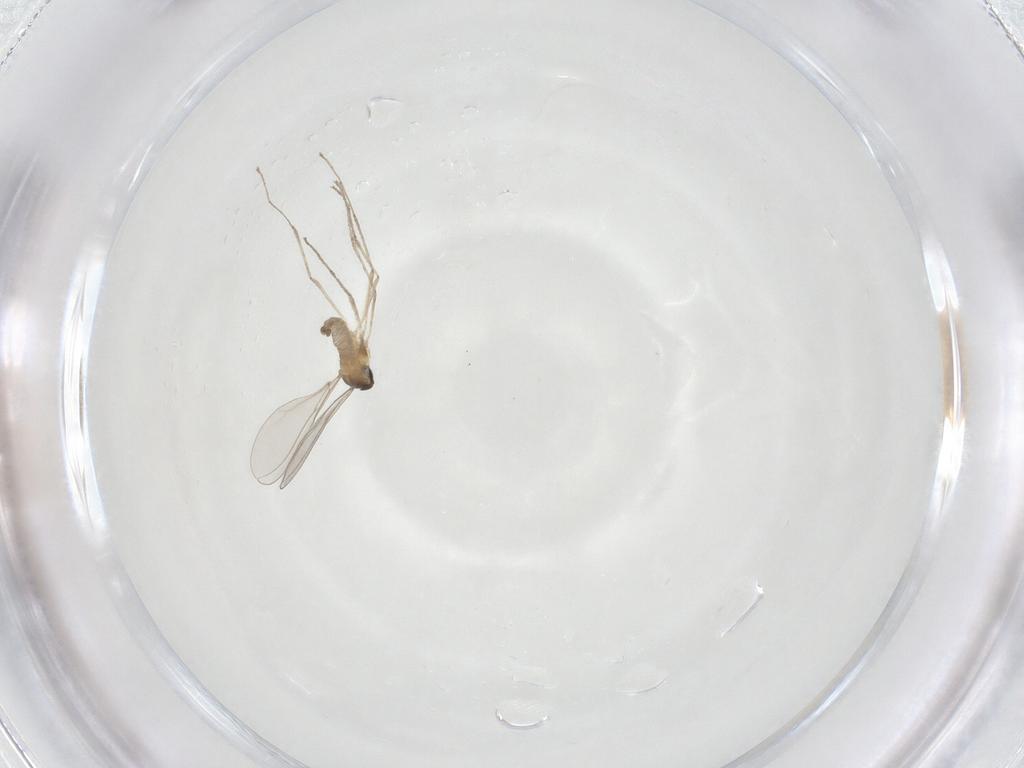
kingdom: Animalia
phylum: Arthropoda
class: Insecta
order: Diptera
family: Cecidomyiidae
